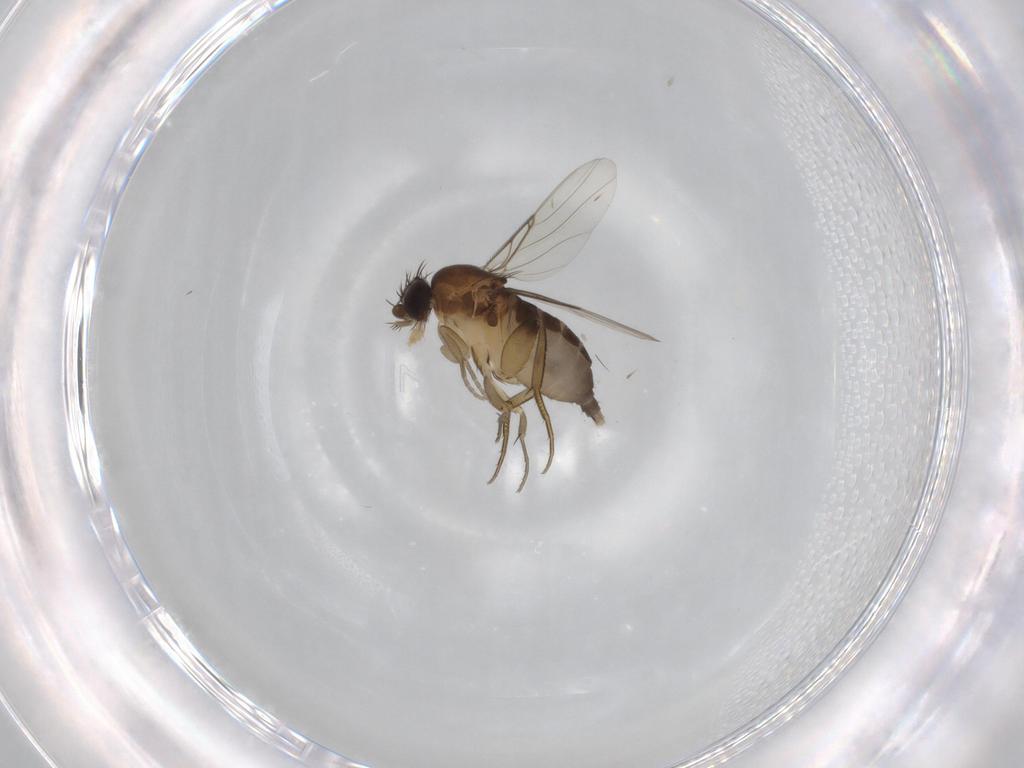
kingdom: Animalia
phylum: Arthropoda
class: Insecta
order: Diptera
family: Phoridae
